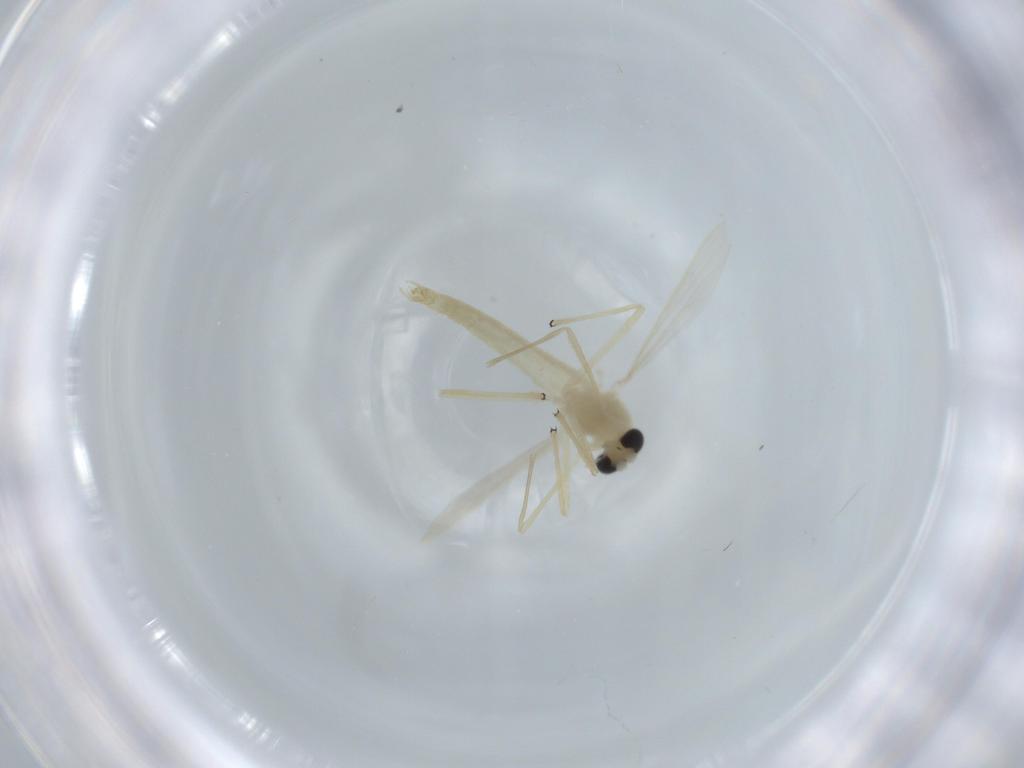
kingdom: Animalia
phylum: Arthropoda
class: Insecta
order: Diptera
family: Chironomidae
